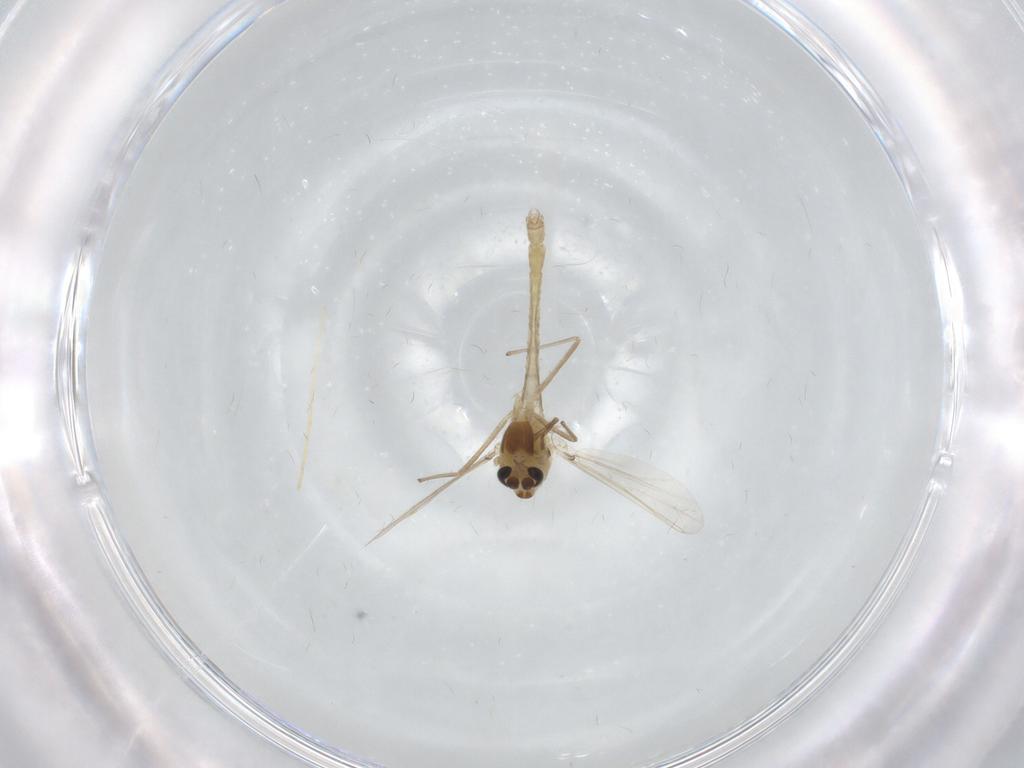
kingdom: Animalia
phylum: Arthropoda
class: Insecta
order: Diptera
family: Chironomidae
